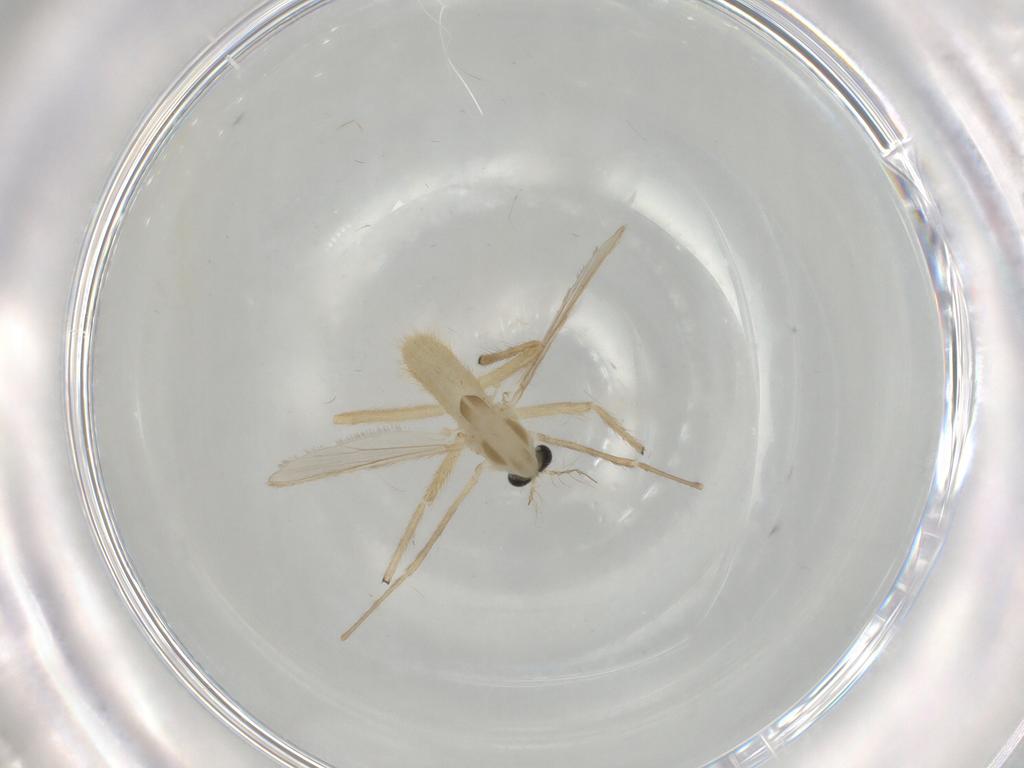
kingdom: Animalia
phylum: Arthropoda
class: Insecta
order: Diptera
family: Chironomidae
